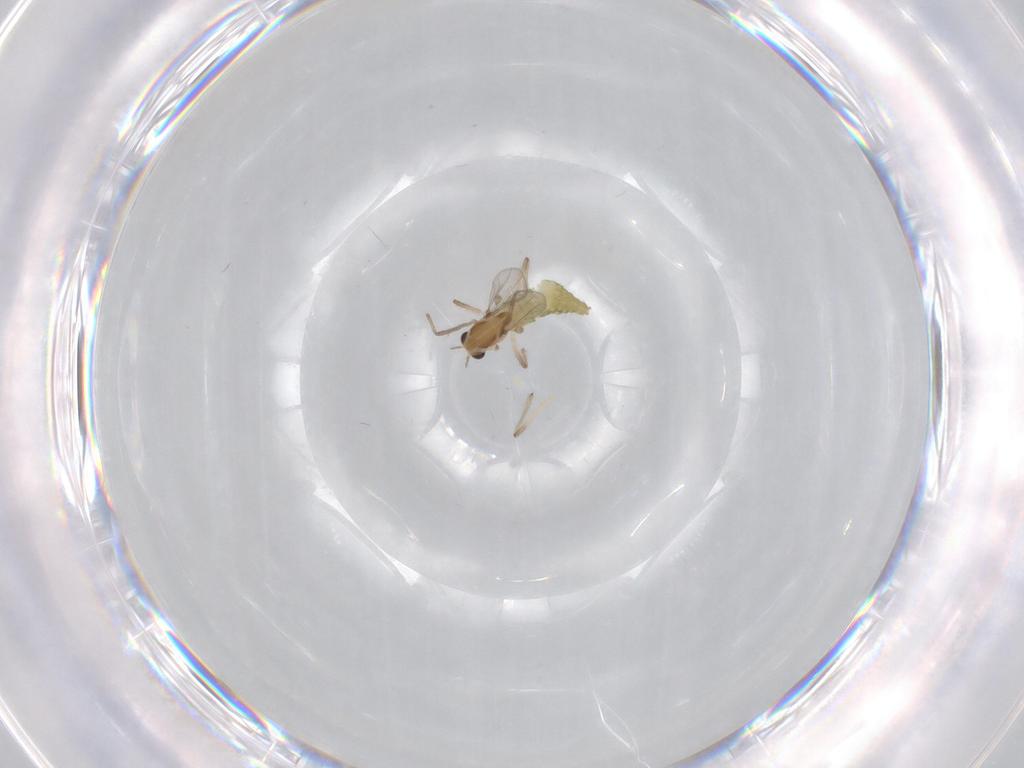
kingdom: Animalia
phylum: Arthropoda
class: Insecta
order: Diptera
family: Chironomidae
